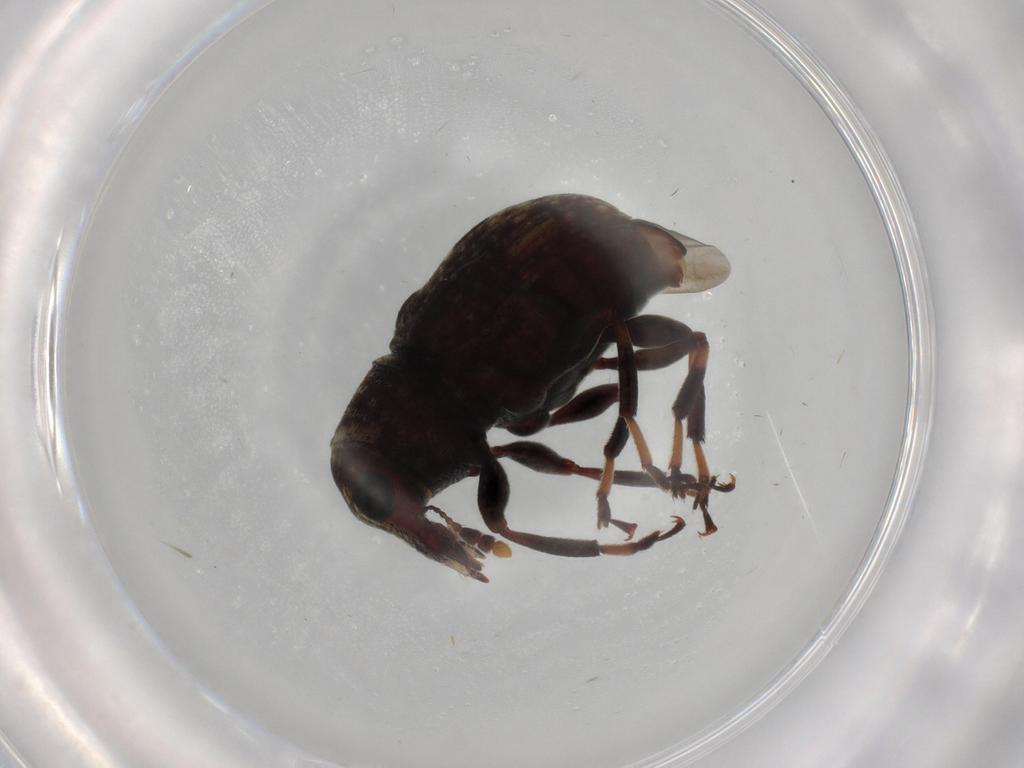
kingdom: Animalia
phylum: Arthropoda
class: Insecta
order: Coleoptera
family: Anthribidae
